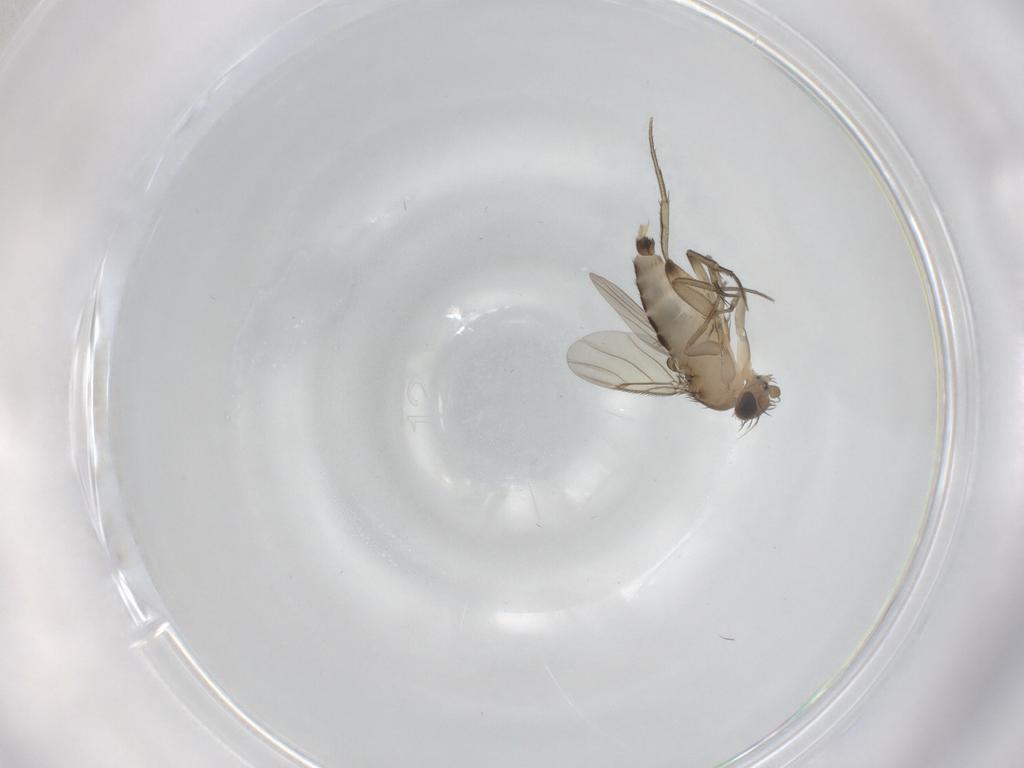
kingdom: Animalia
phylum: Arthropoda
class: Insecta
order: Diptera
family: Phoridae
